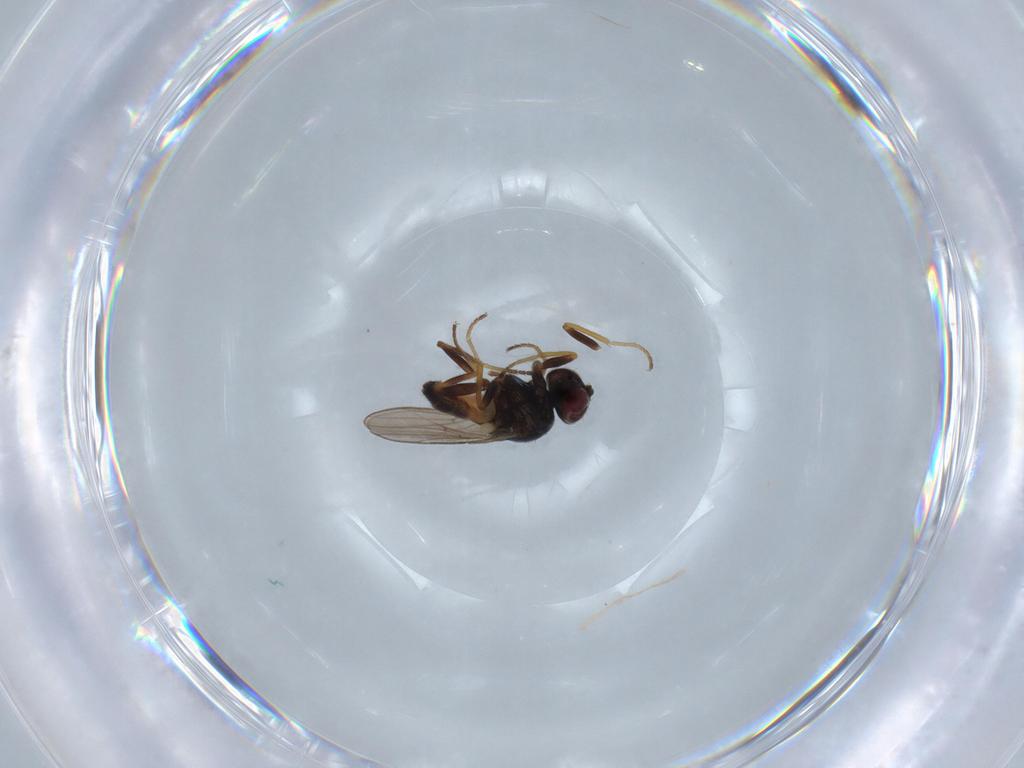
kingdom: Animalia
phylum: Arthropoda
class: Insecta
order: Diptera
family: Chloropidae
